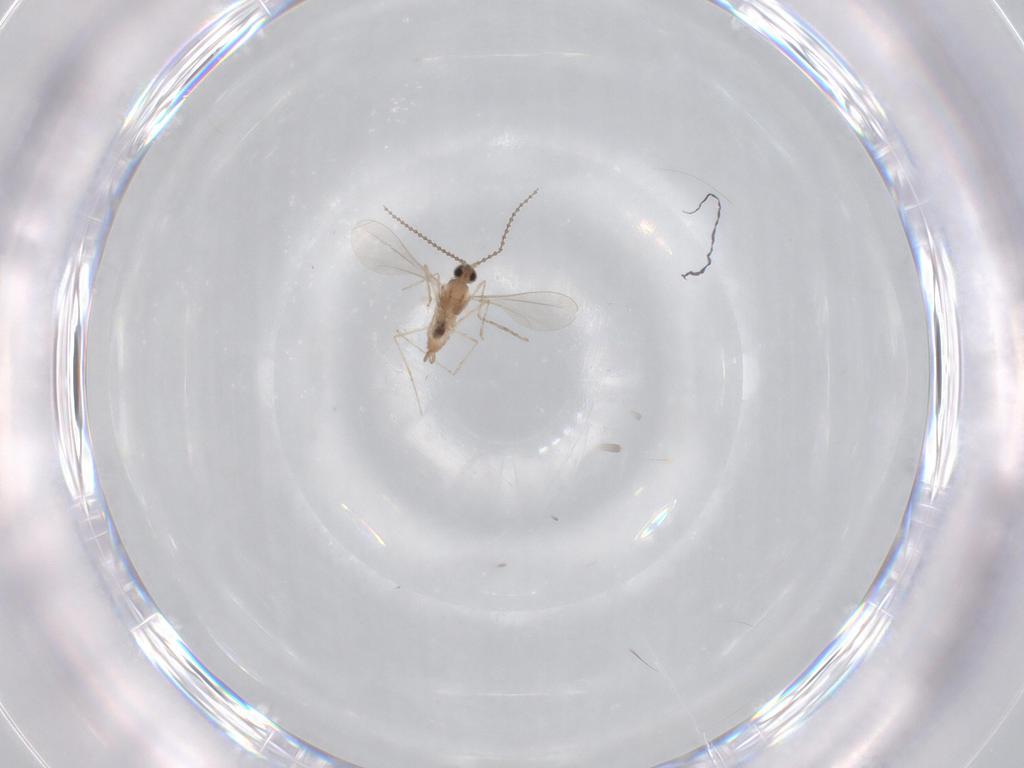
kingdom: Animalia
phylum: Arthropoda
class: Insecta
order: Diptera
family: Cecidomyiidae
